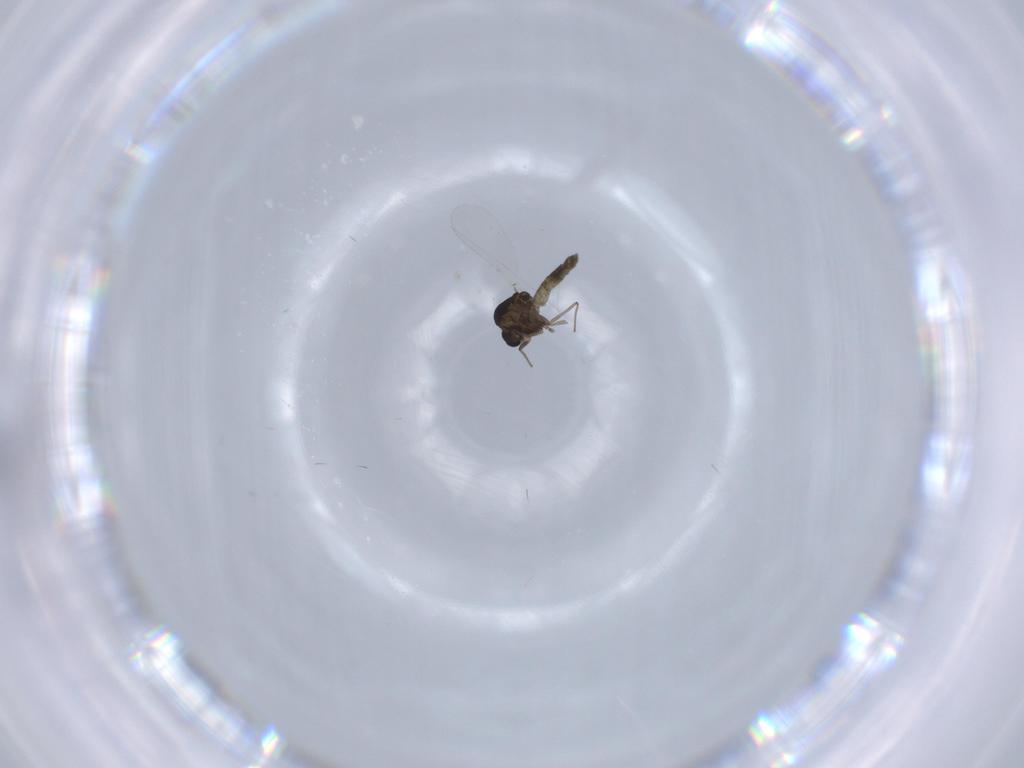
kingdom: Animalia
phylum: Arthropoda
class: Insecta
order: Diptera
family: Chironomidae
